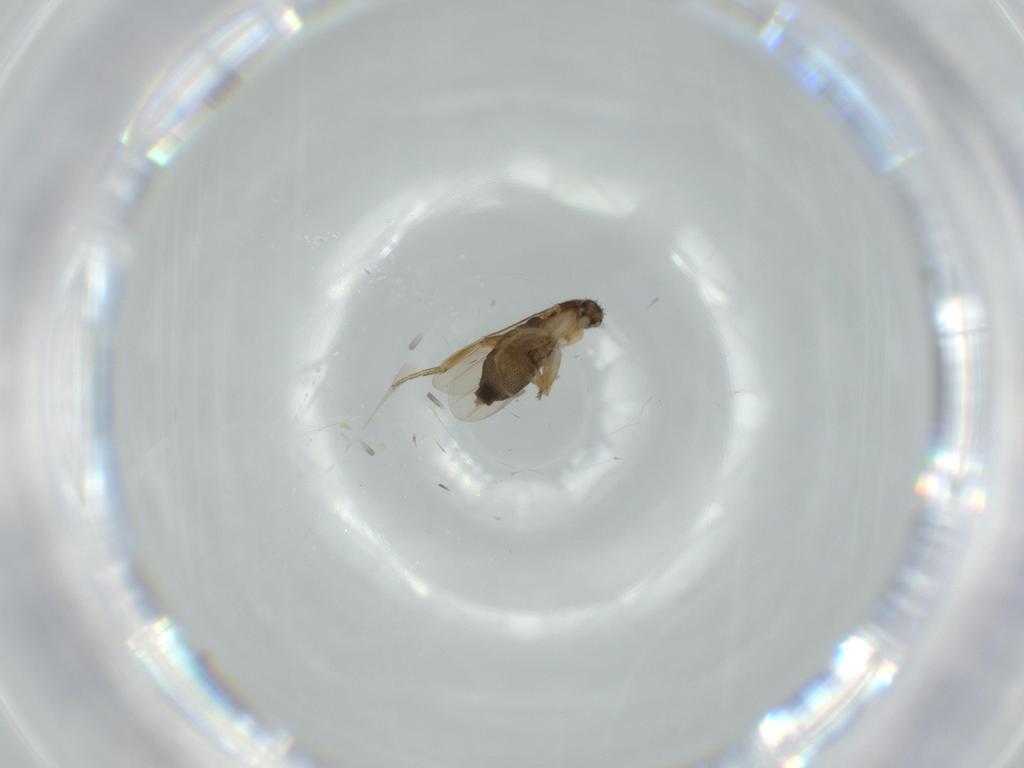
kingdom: Animalia
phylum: Arthropoda
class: Insecta
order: Diptera
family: Phoridae
